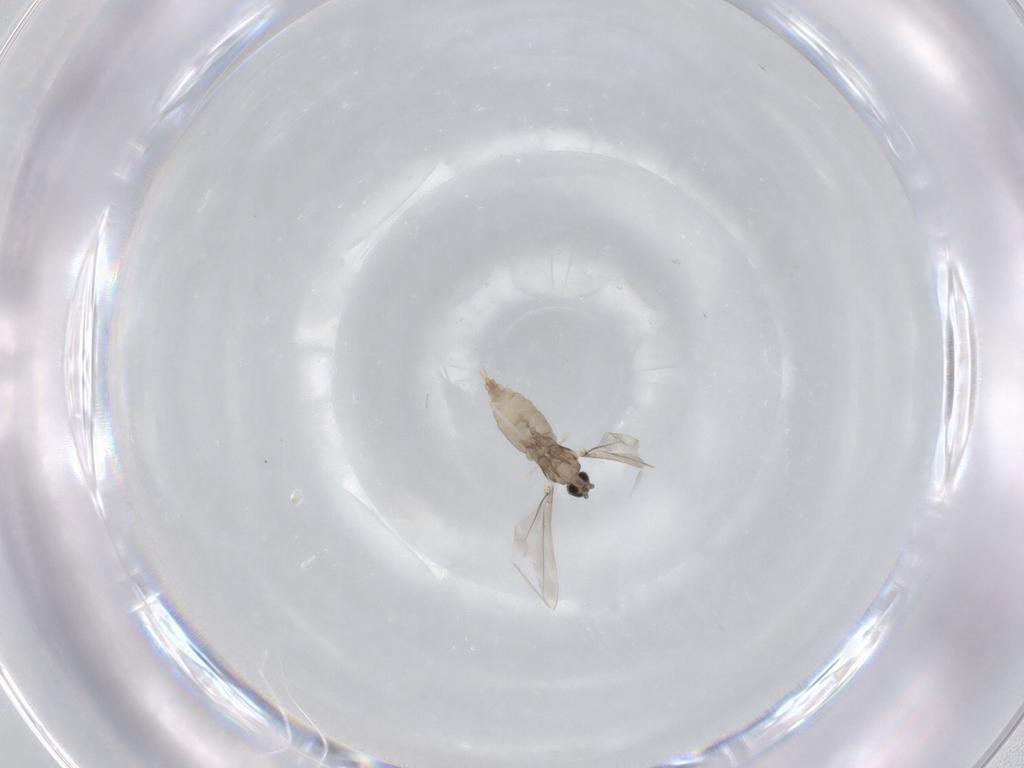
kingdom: Animalia
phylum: Arthropoda
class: Insecta
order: Diptera
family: Cecidomyiidae
